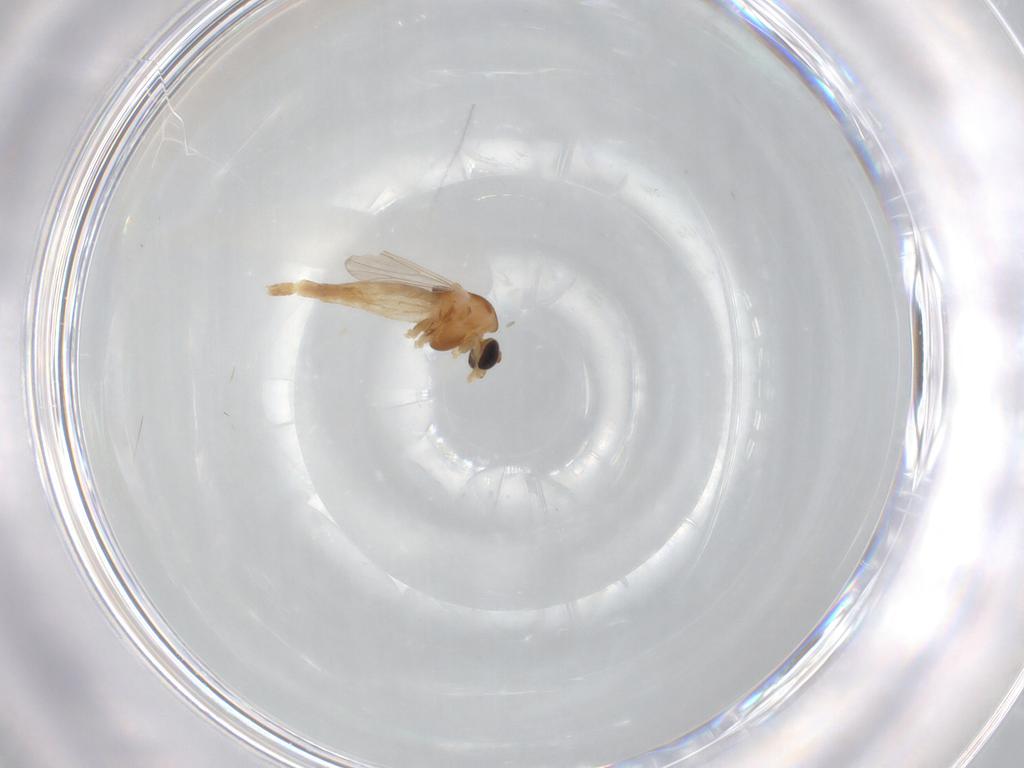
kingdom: Animalia
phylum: Arthropoda
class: Insecta
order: Diptera
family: Chironomidae
